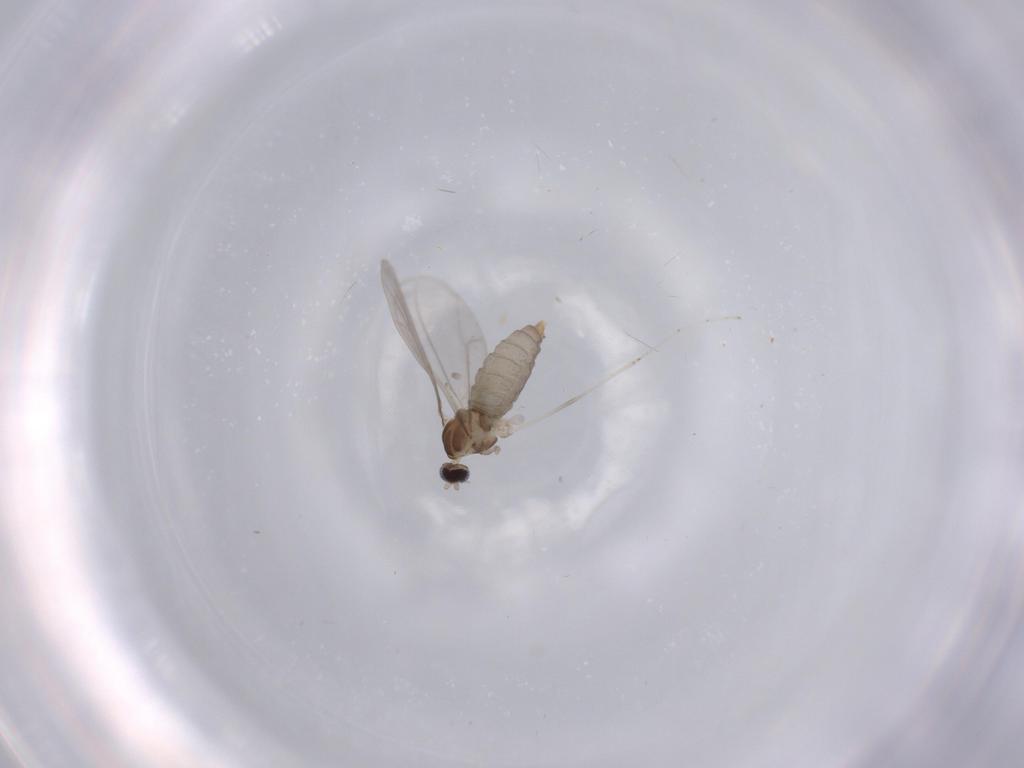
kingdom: Animalia
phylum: Arthropoda
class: Insecta
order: Diptera
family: Cecidomyiidae
